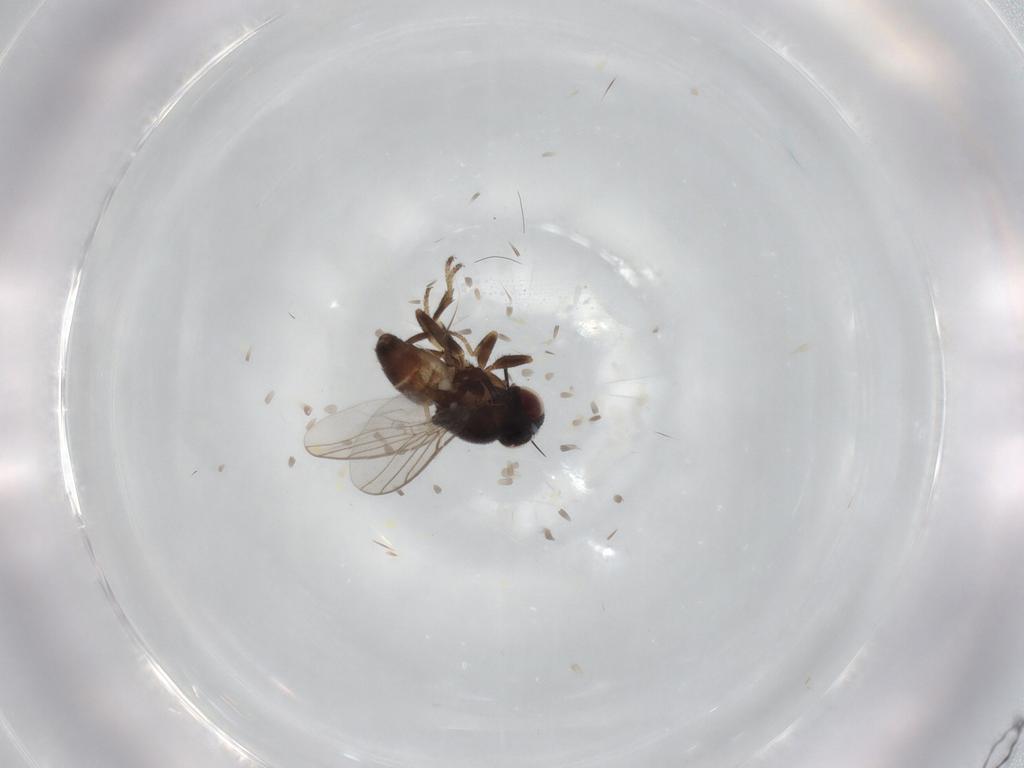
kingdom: Animalia
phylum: Arthropoda
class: Insecta
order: Diptera
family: Chloropidae
